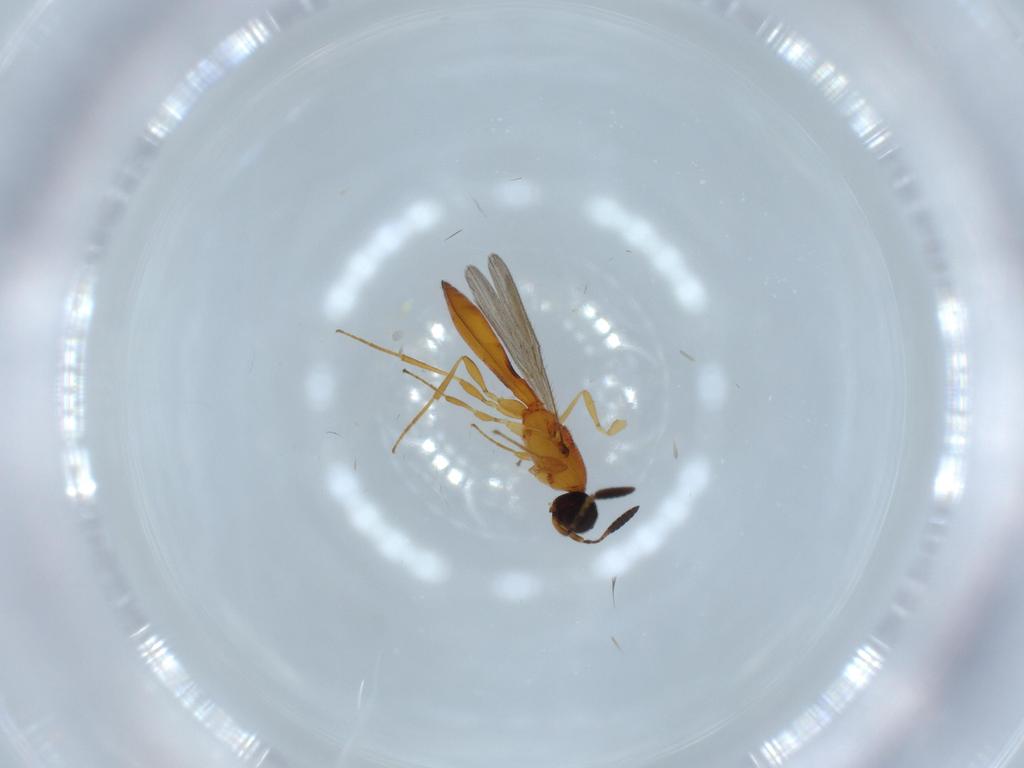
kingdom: Animalia
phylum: Arthropoda
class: Insecta
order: Hymenoptera
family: Scelionidae
